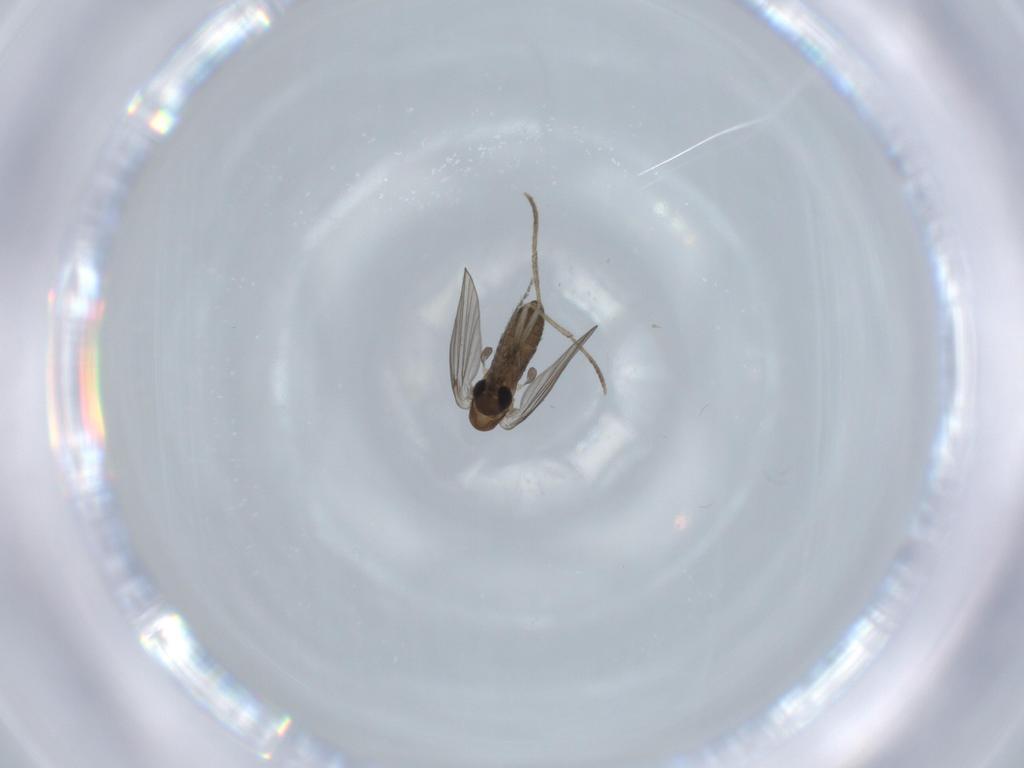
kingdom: Animalia
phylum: Arthropoda
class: Insecta
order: Diptera
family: Psychodidae
